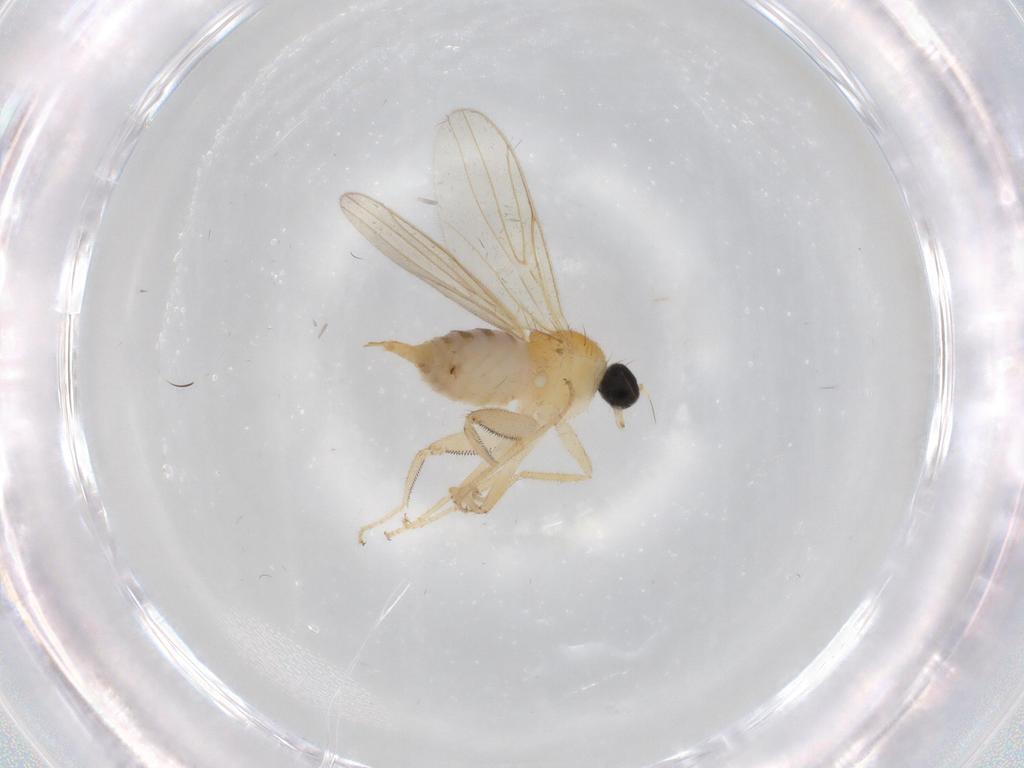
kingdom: Animalia
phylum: Arthropoda
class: Insecta
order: Diptera
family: Hybotidae
